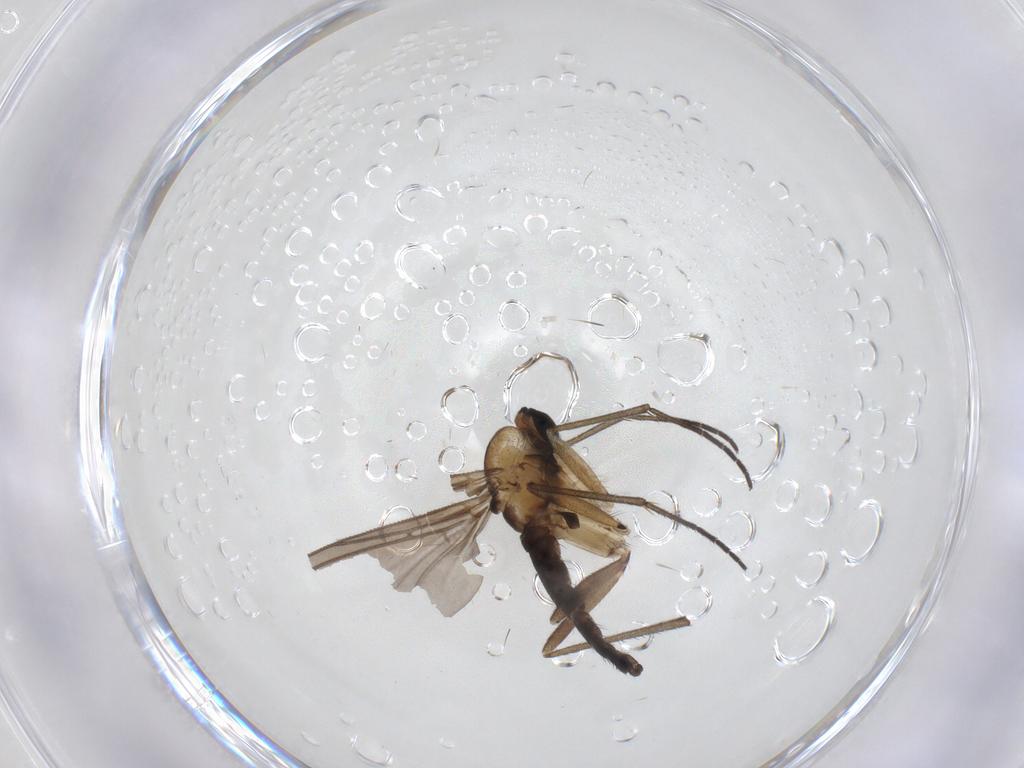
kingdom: Animalia
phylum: Arthropoda
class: Insecta
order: Diptera
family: Sciaridae
